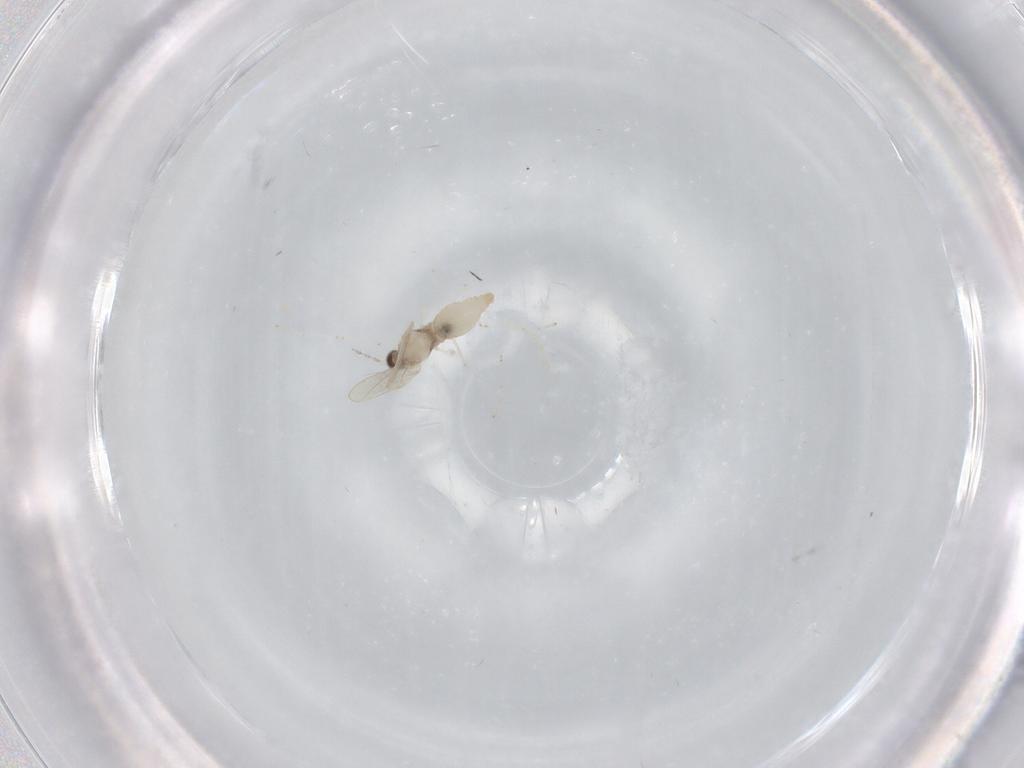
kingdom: Animalia
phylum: Arthropoda
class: Insecta
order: Diptera
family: Cecidomyiidae
